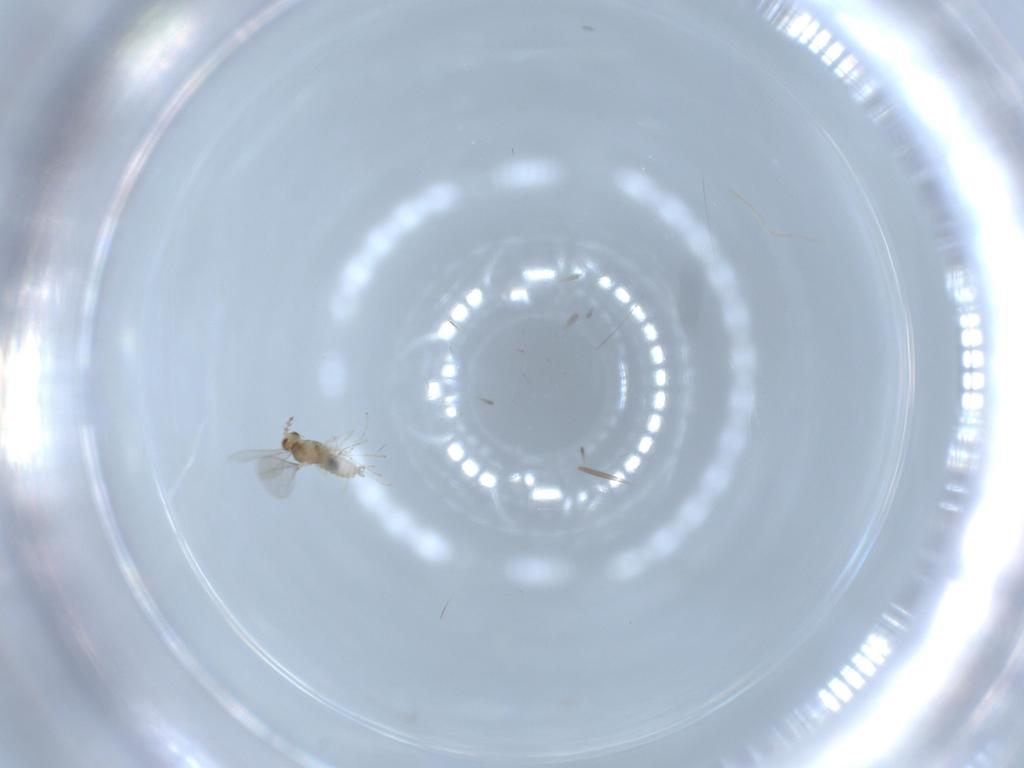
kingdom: Animalia
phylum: Arthropoda
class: Insecta
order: Diptera
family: Cecidomyiidae
